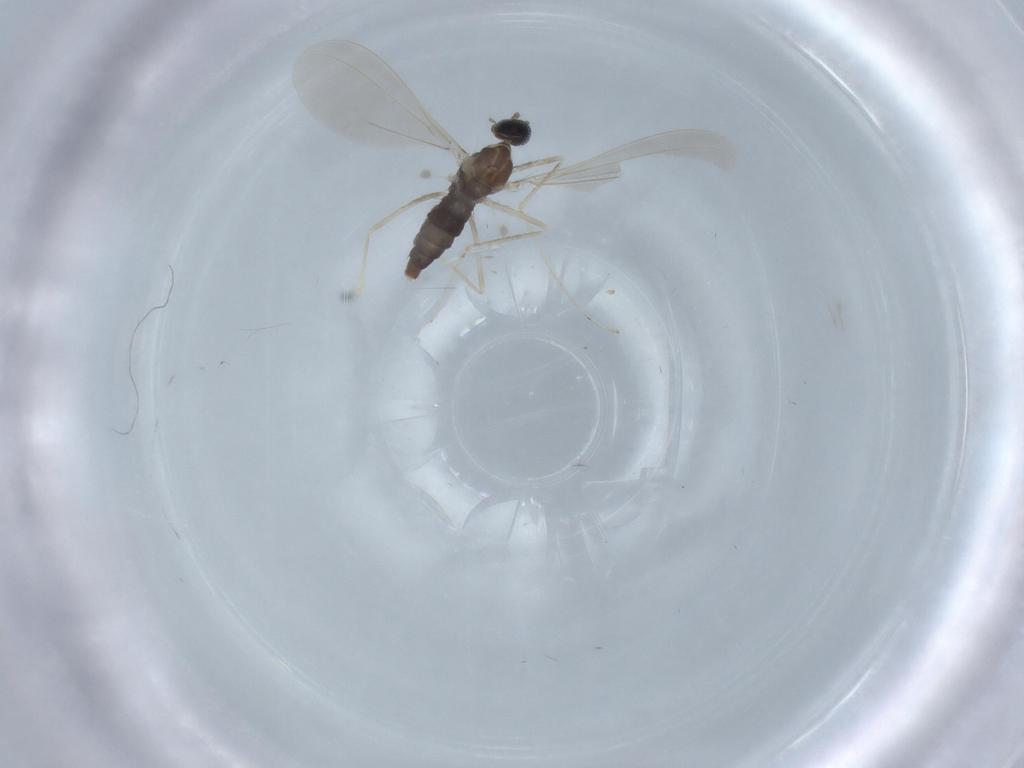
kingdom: Animalia
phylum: Arthropoda
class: Insecta
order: Diptera
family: Cecidomyiidae
